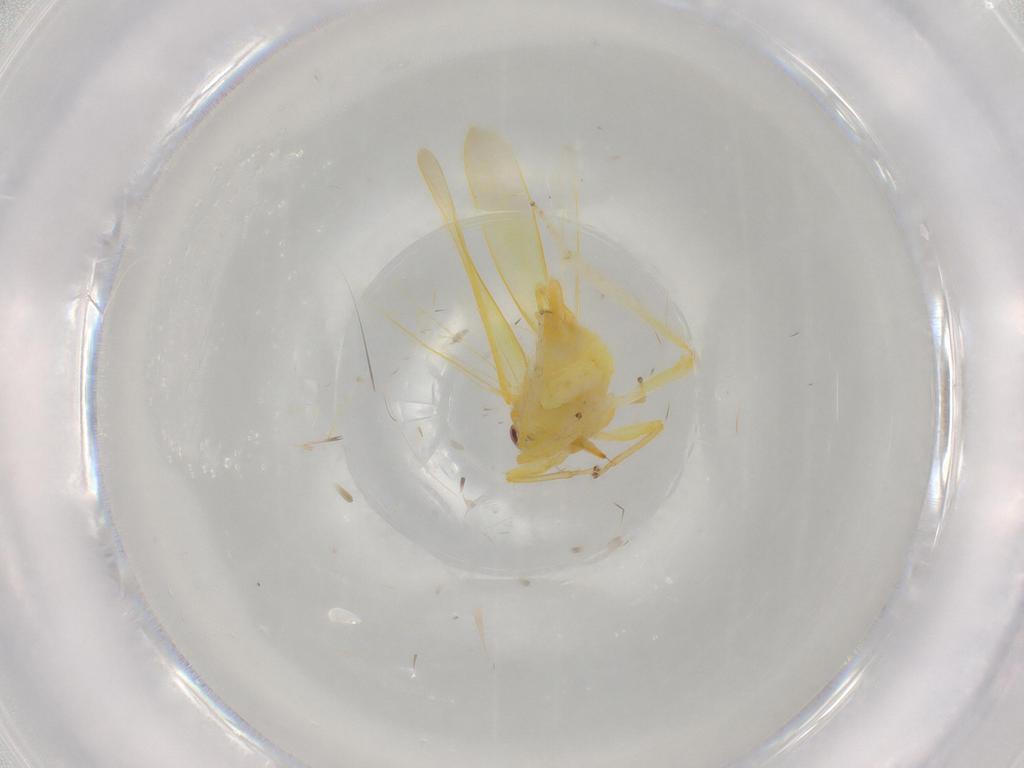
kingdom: Animalia
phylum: Arthropoda
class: Insecta
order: Hemiptera
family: Cicadellidae
